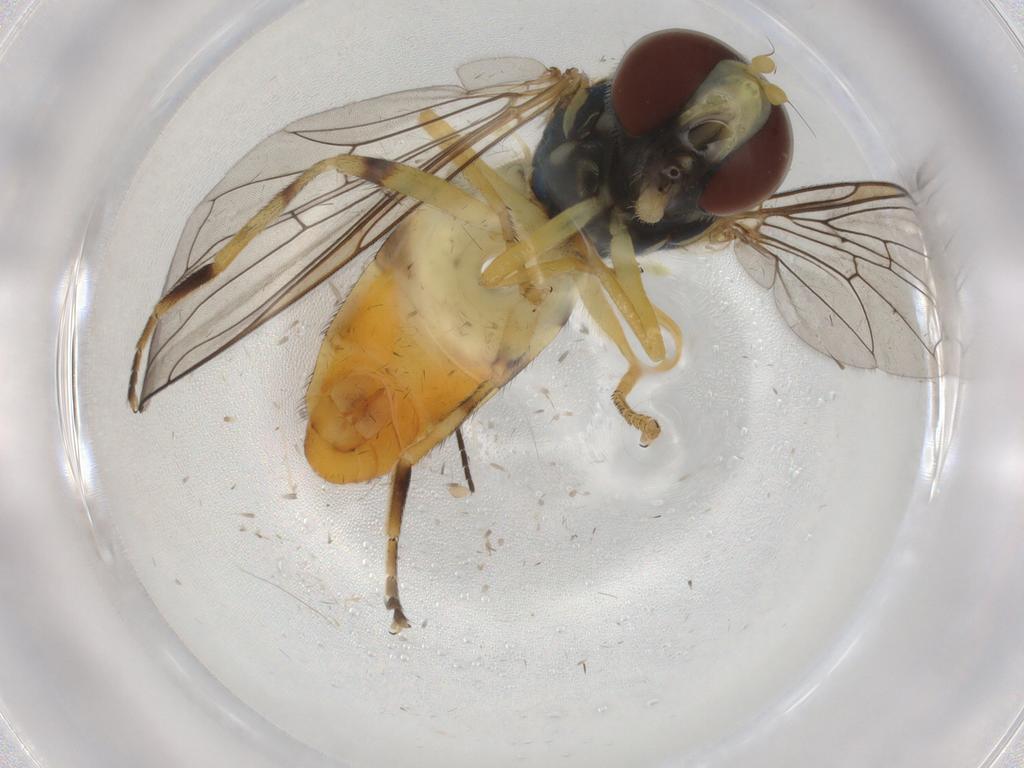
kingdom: Animalia
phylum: Arthropoda
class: Insecta
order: Diptera
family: Dolichopodidae
